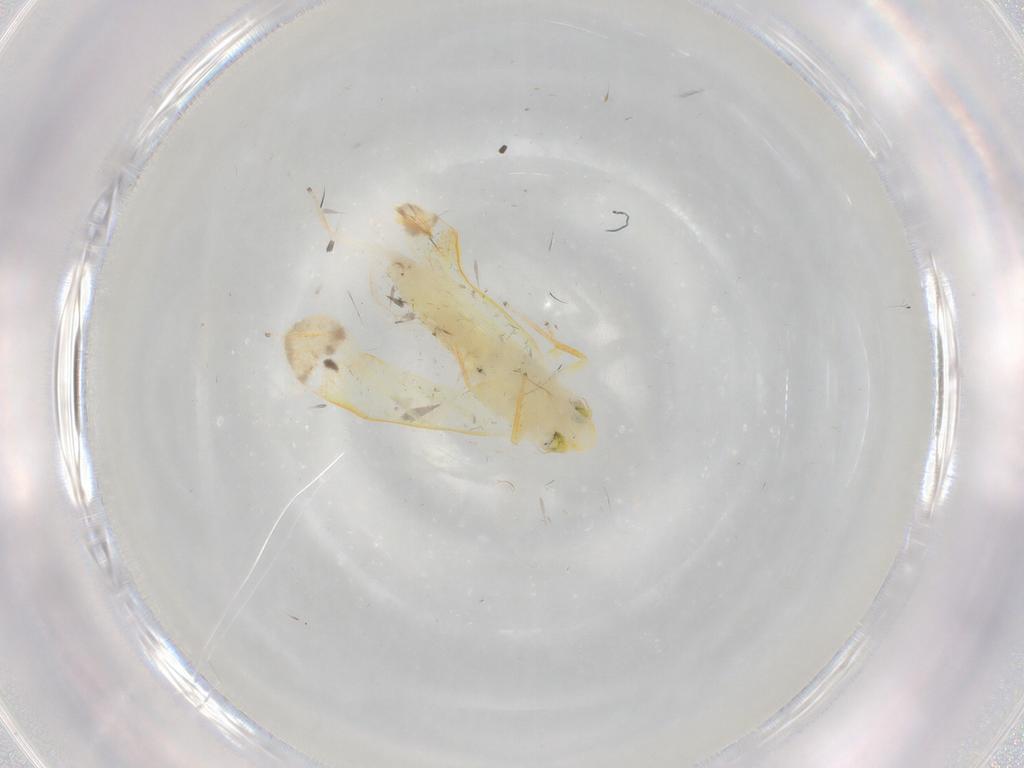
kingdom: Animalia
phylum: Arthropoda
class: Insecta
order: Hemiptera
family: Cicadellidae
